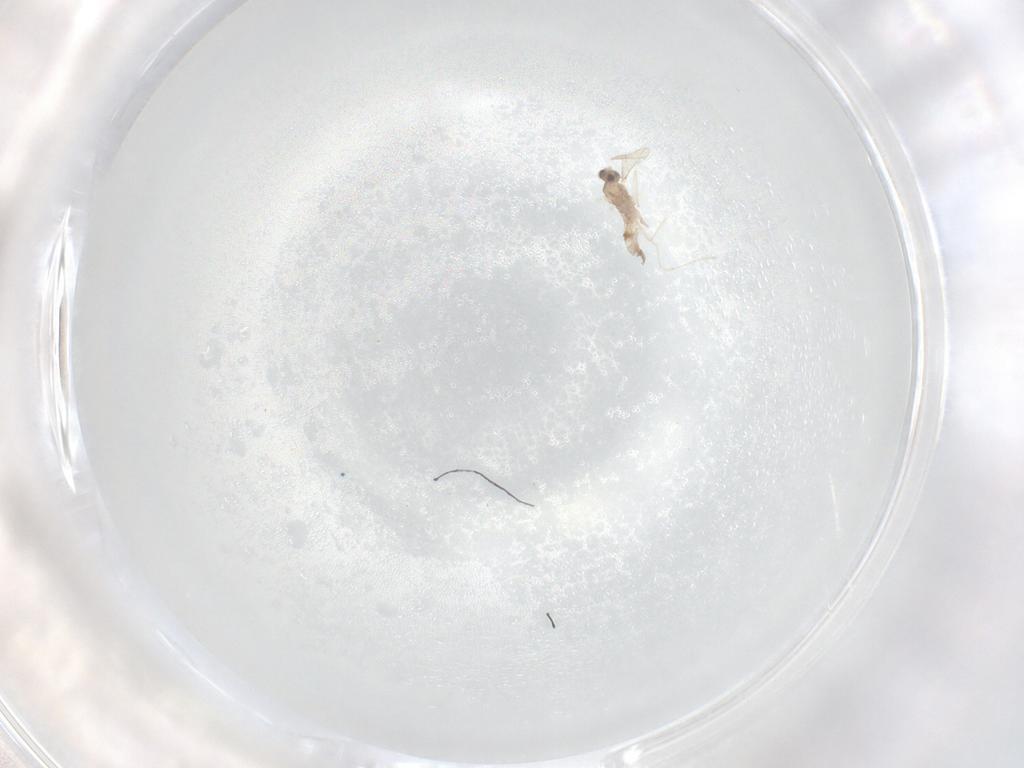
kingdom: Animalia
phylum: Arthropoda
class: Insecta
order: Diptera
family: Cecidomyiidae
